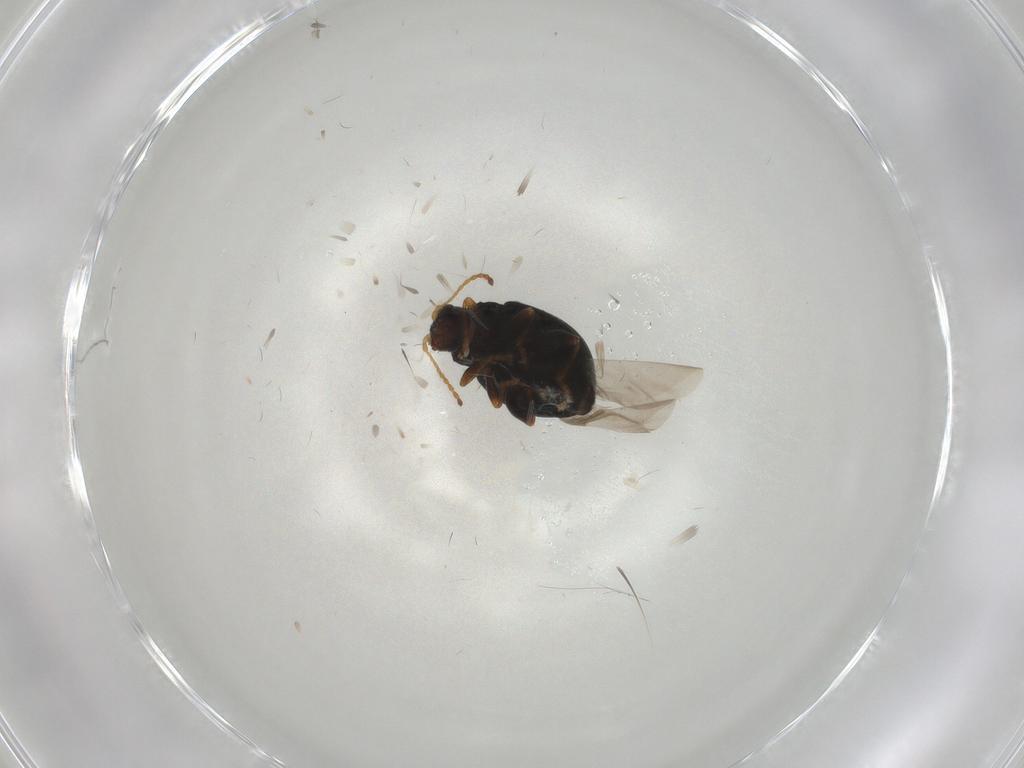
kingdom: Animalia
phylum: Arthropoda
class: Insecta
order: Coleoptera
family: Chrysomelidae
